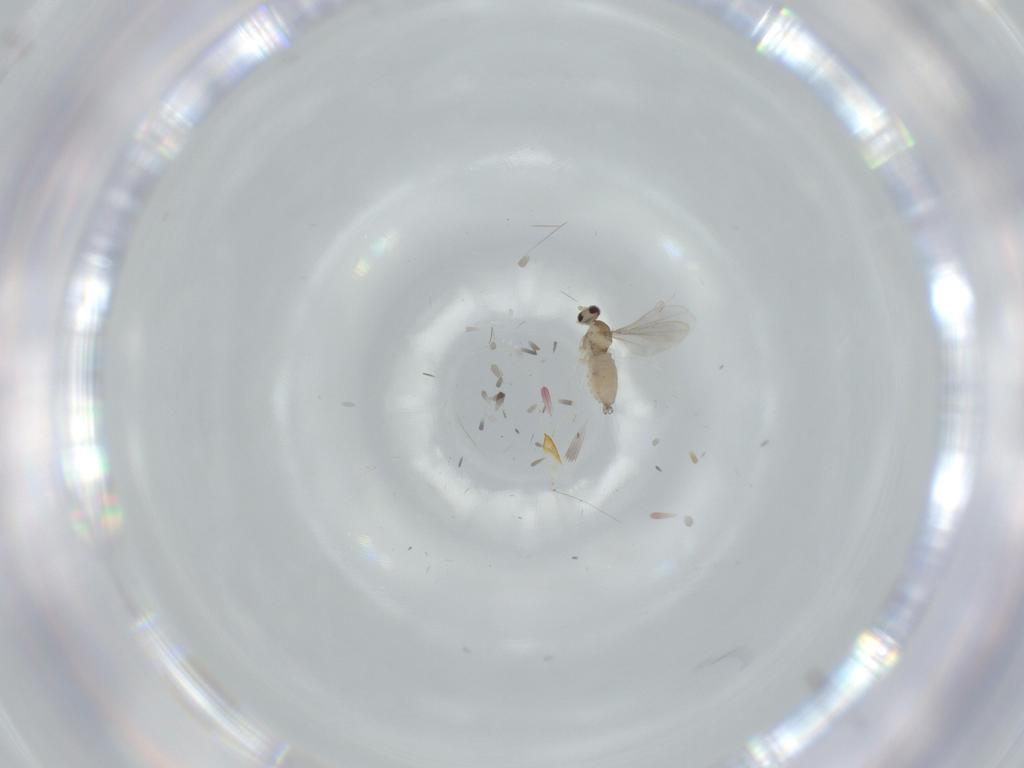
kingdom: Animalia
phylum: Arthropoda
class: Insecta
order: Diptera
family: Cecidomyiidae
